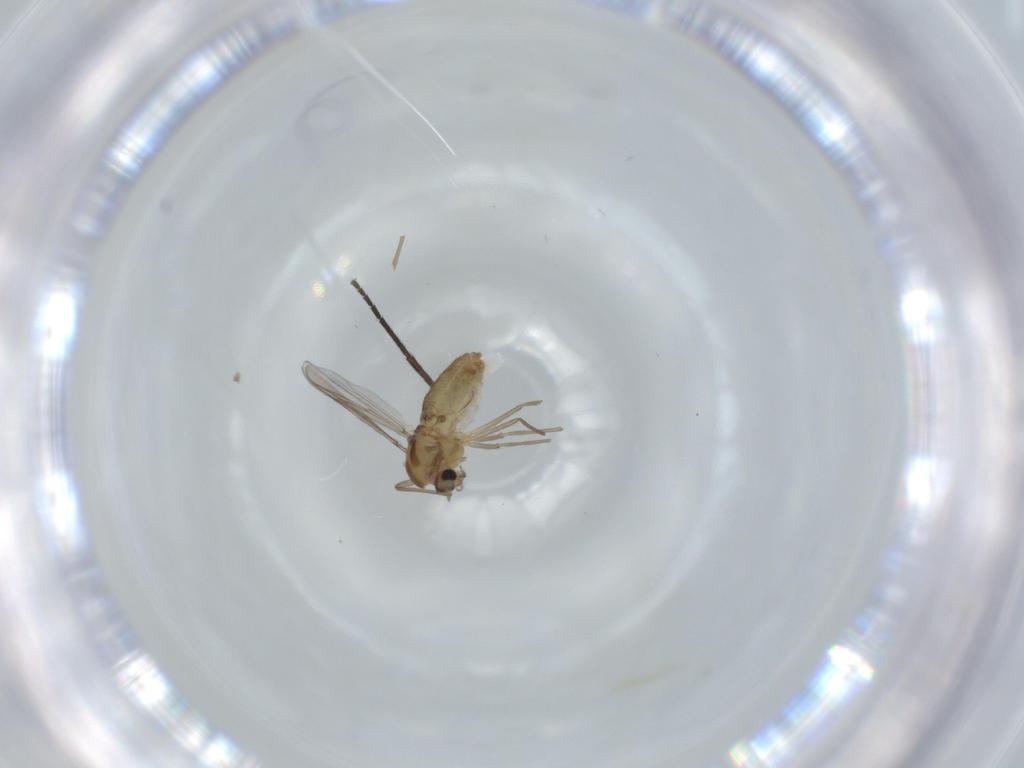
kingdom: Animalia
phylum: Arthropoda
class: Insecta
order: Diptera
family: Chironomidae
